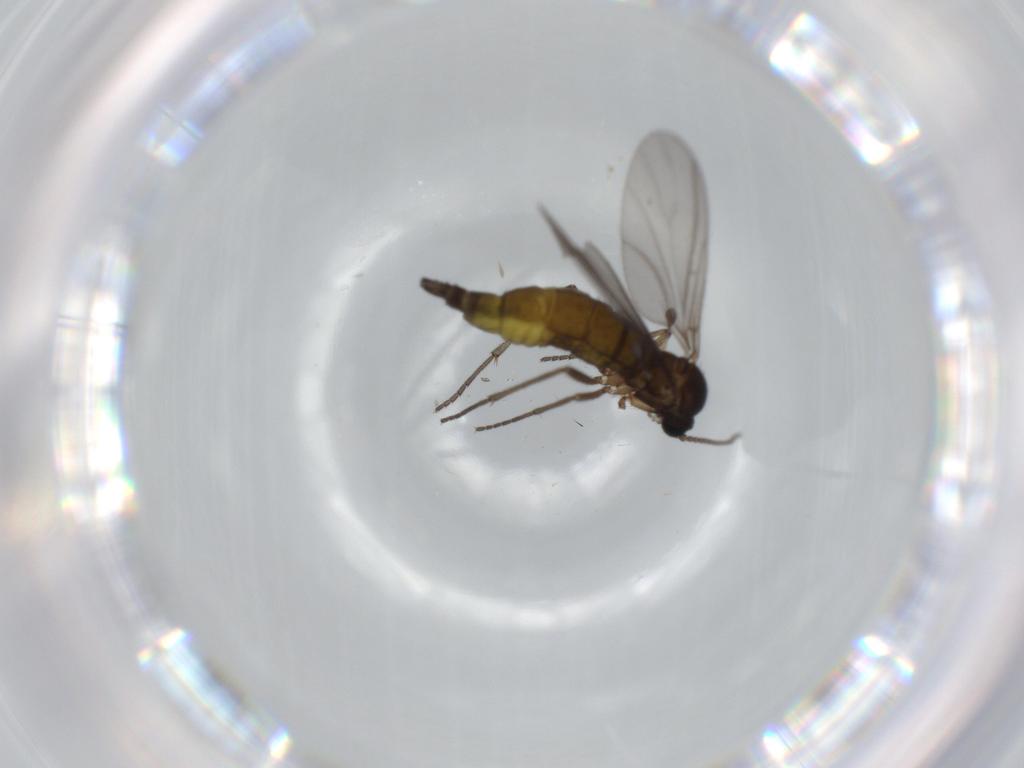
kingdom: Animalia
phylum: Arthropoda
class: Insecta
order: Diptera
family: Sciaridae
